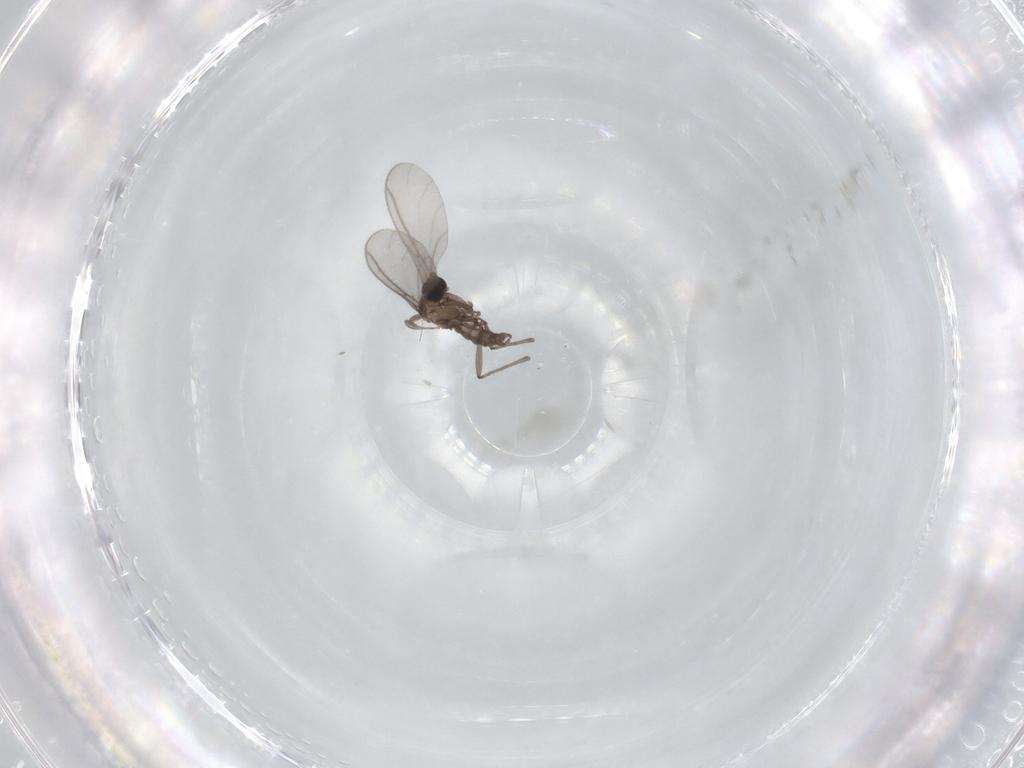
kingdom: Animalia
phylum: Arthropoda
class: Insecta
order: Diptera
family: Sciaridae
